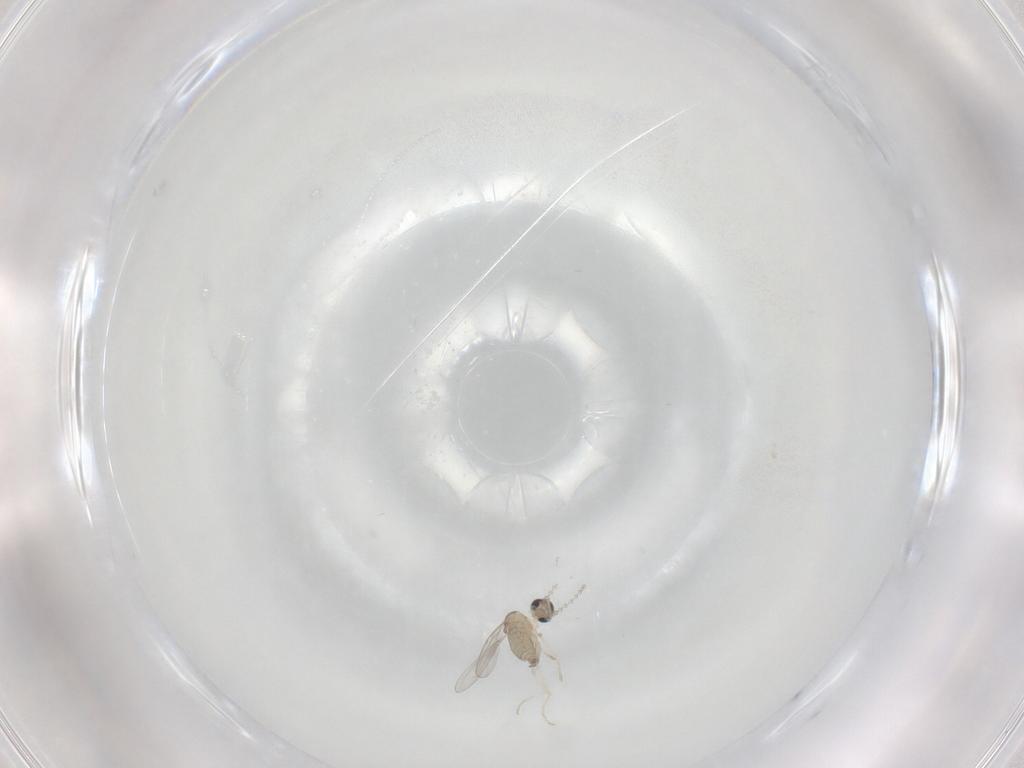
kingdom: Animalia
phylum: Arthropoda
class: Insecta
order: Diptera
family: Cecidomyiidae
